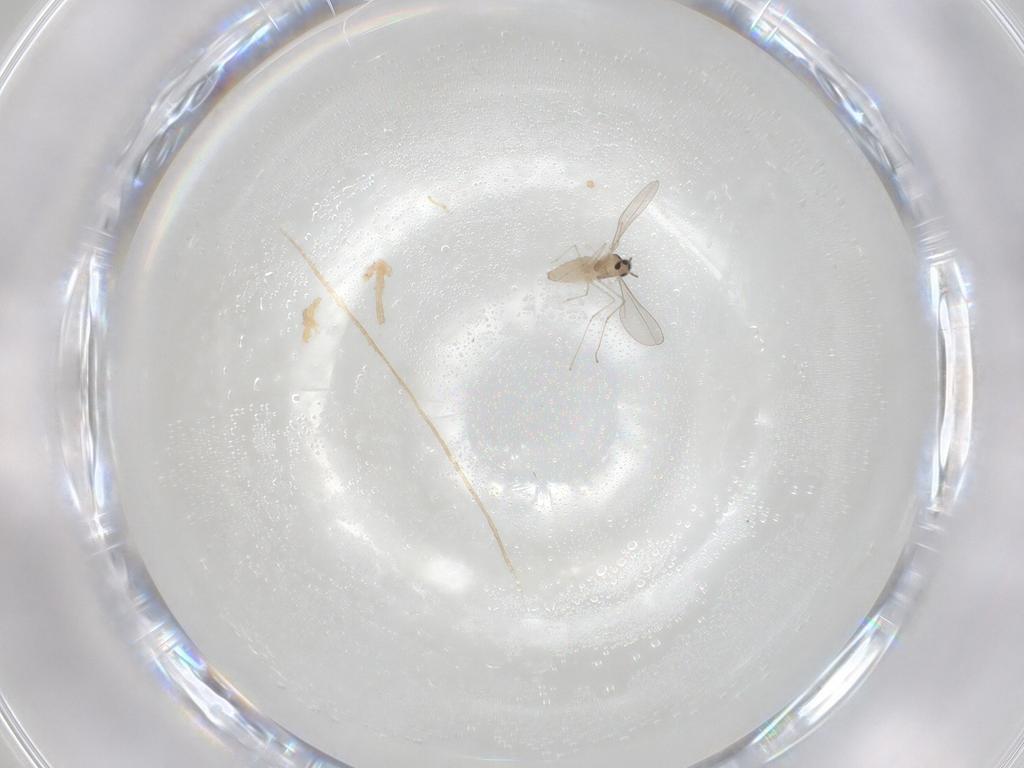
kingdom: Animalia
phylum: Arthropoda
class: Insecta
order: Diptera
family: Cecidomyiidae
